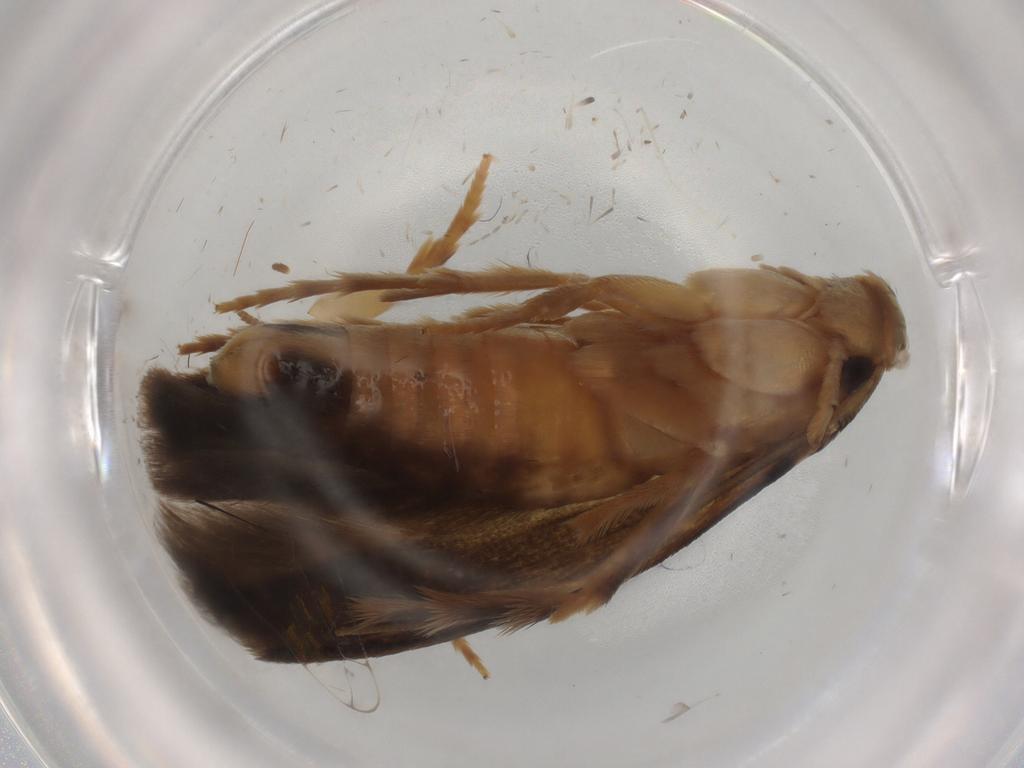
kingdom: Animalia
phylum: Arthropoda
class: Insecta
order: Lepidoptera
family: Tineidae
